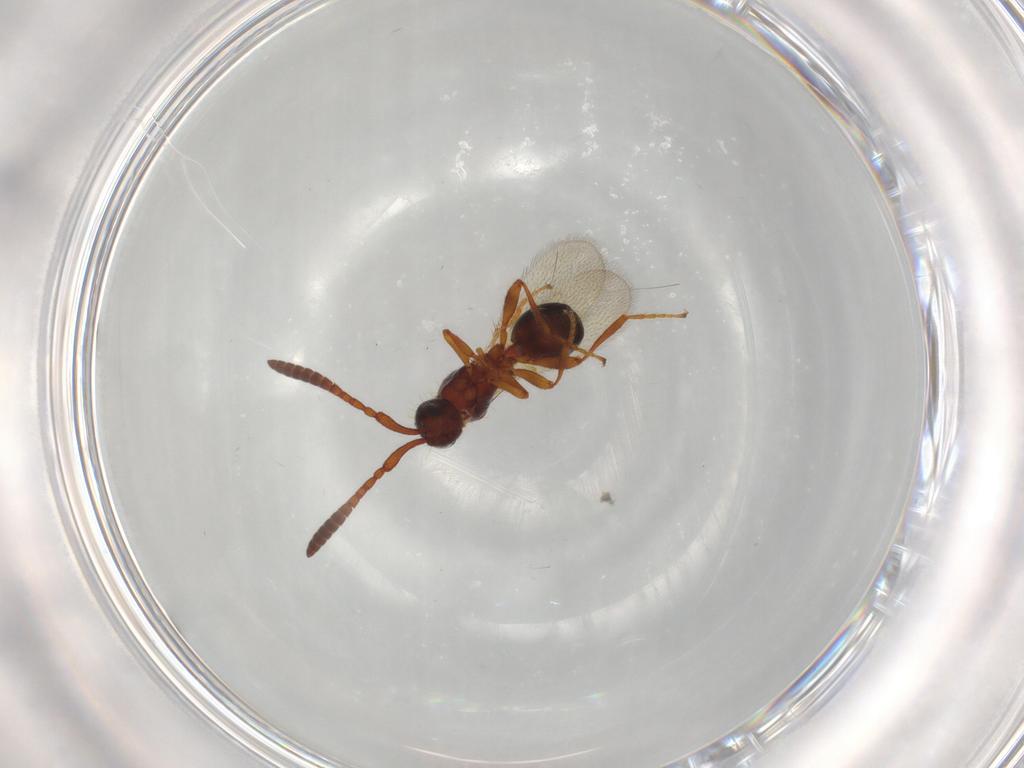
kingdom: Animalia
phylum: Arthropoda
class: Insecta
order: Hymenoptera
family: Diapriidae
